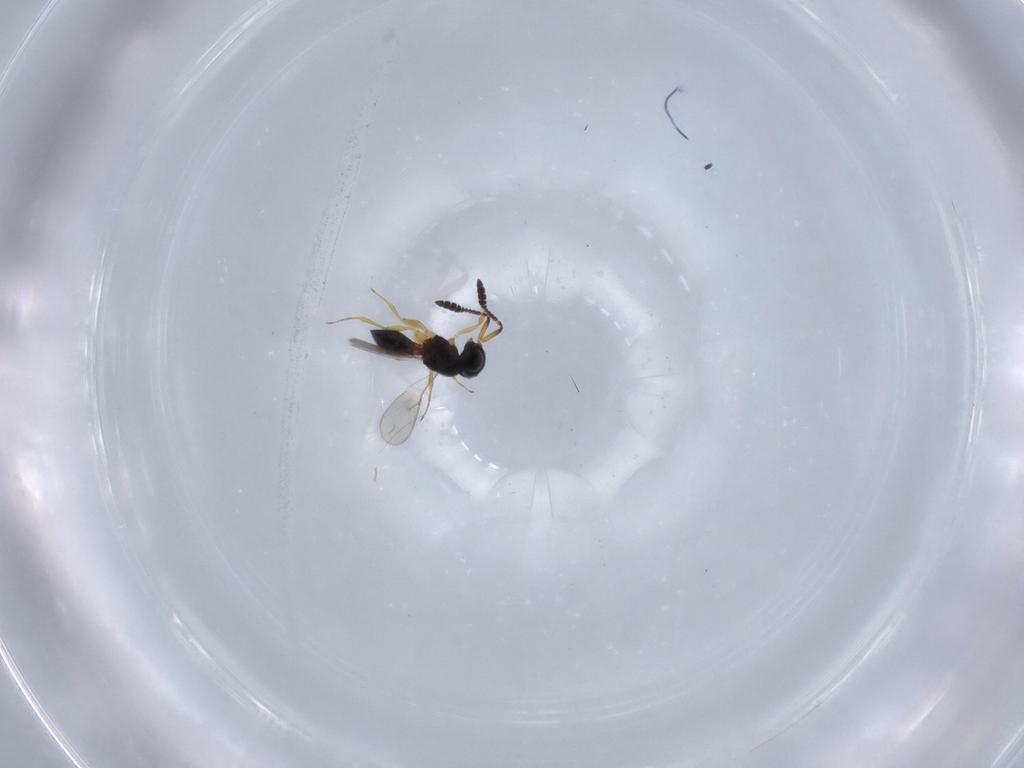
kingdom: Animalia
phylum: Arthropoda
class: Insecta
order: Hymenoptera
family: Scelionidae
